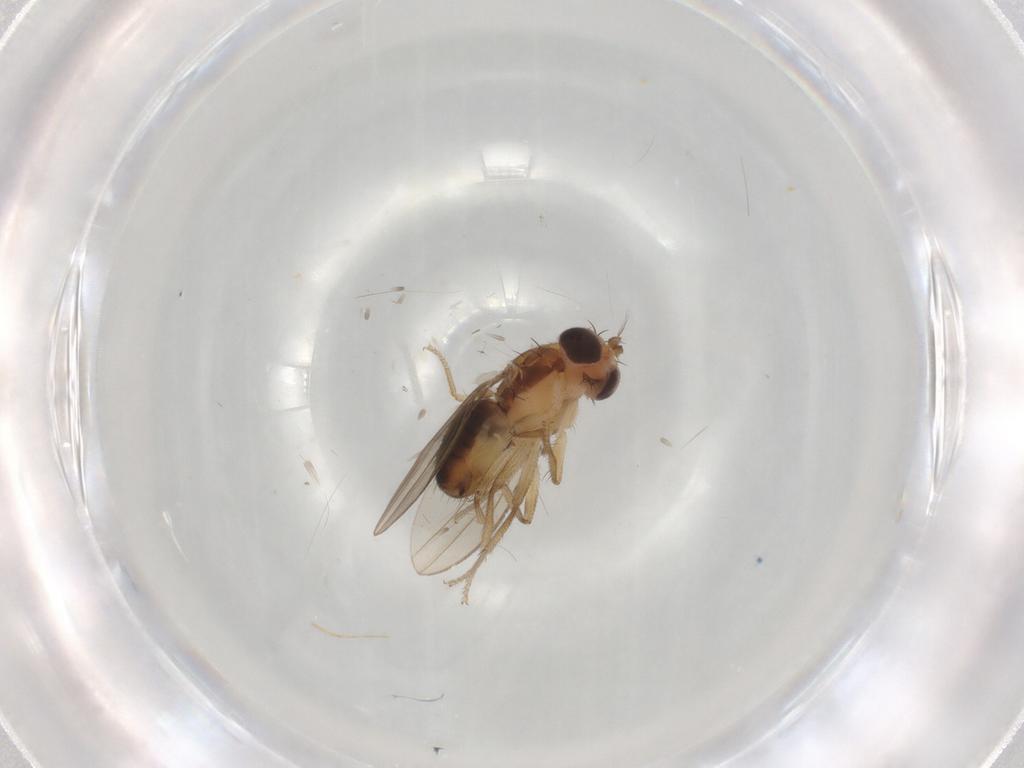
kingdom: Animalia
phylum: Arthropoda
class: Insecta
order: Diptera
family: Drosophilidae
